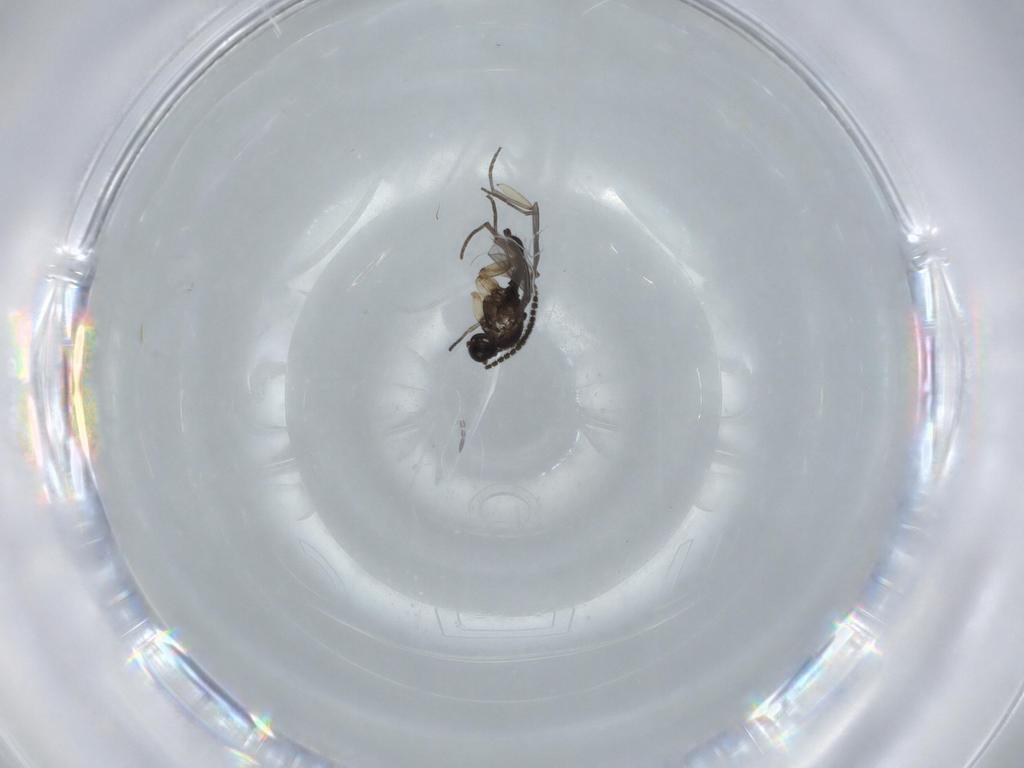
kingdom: Animalia
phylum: Arthropoda
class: Insecta
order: Diptera
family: Sciaridae
